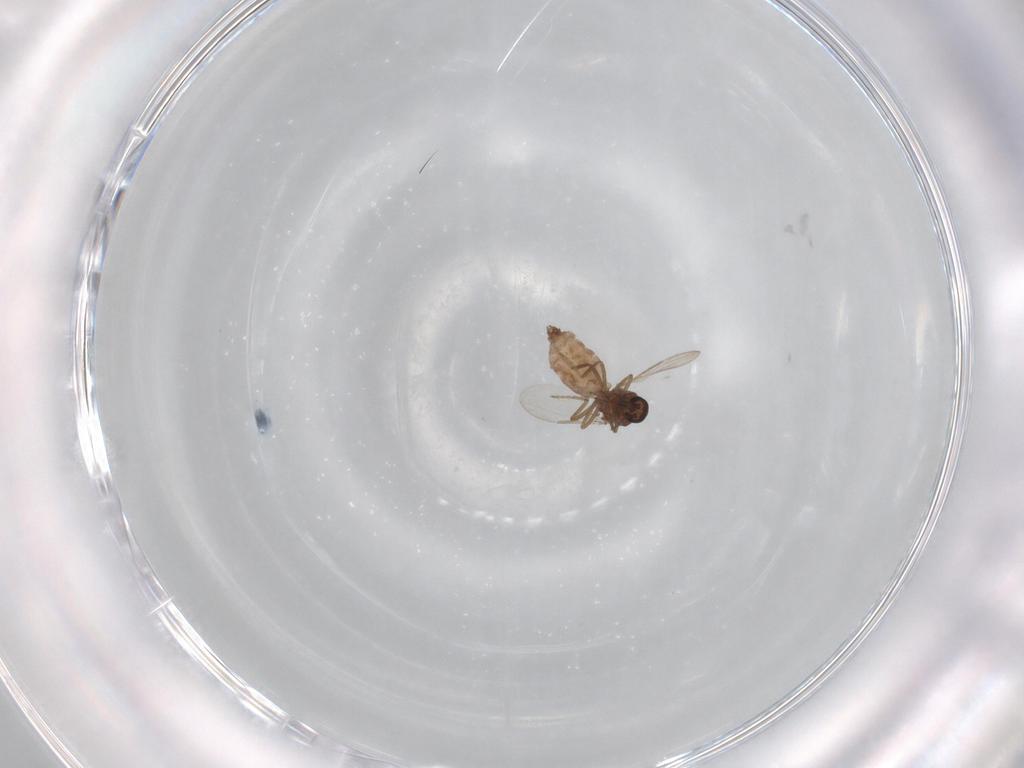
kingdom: Animalia
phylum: Arthropoda
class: Insecta
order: Diptera
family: Ceratopogonidae
